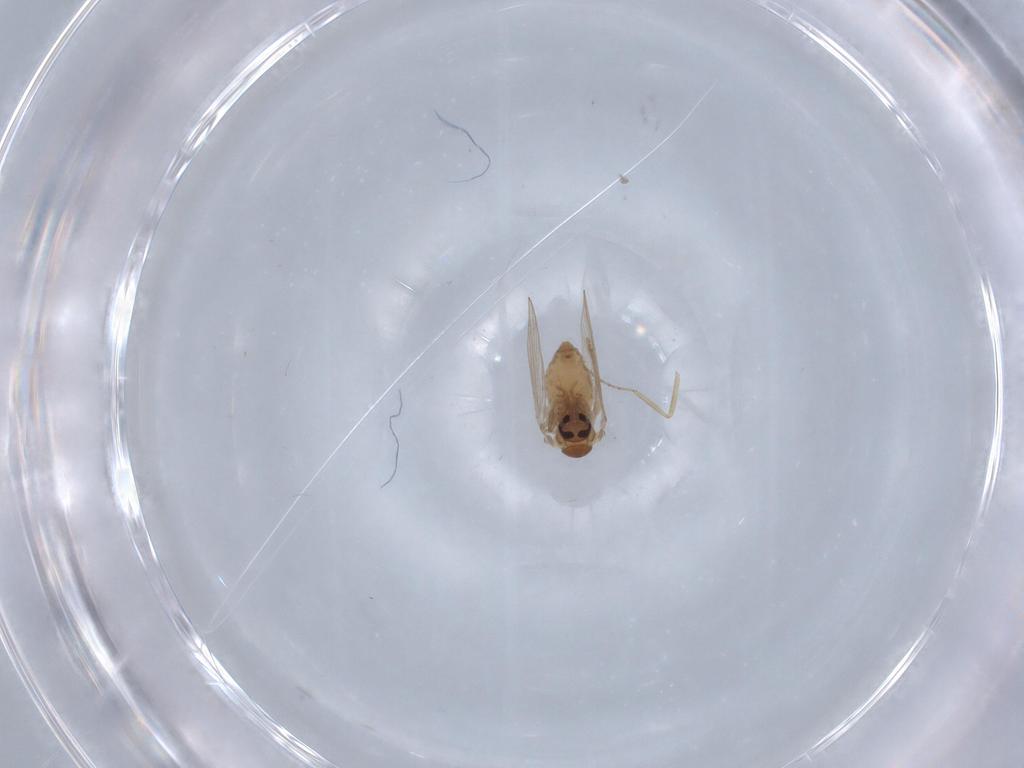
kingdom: Animalia
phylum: Arthropoda
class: Insecta
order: Diptera
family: Psychodidae
